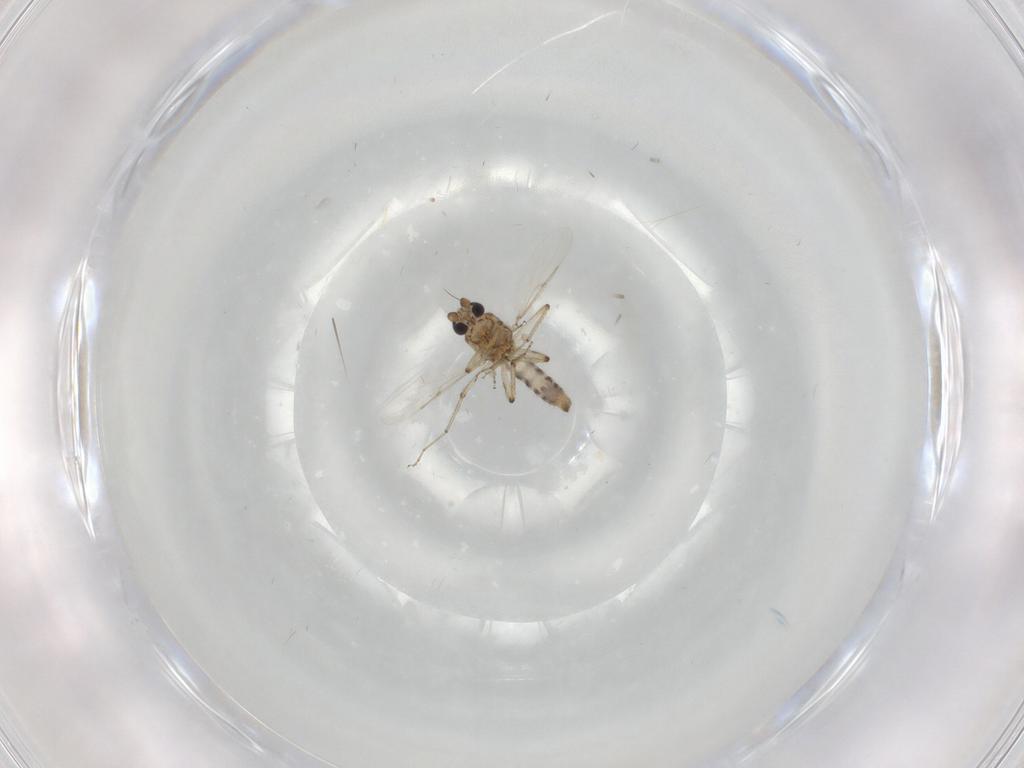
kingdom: Animalia
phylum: Arthropoda
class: Insecta
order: Diptera
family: Ceratopogonidae
